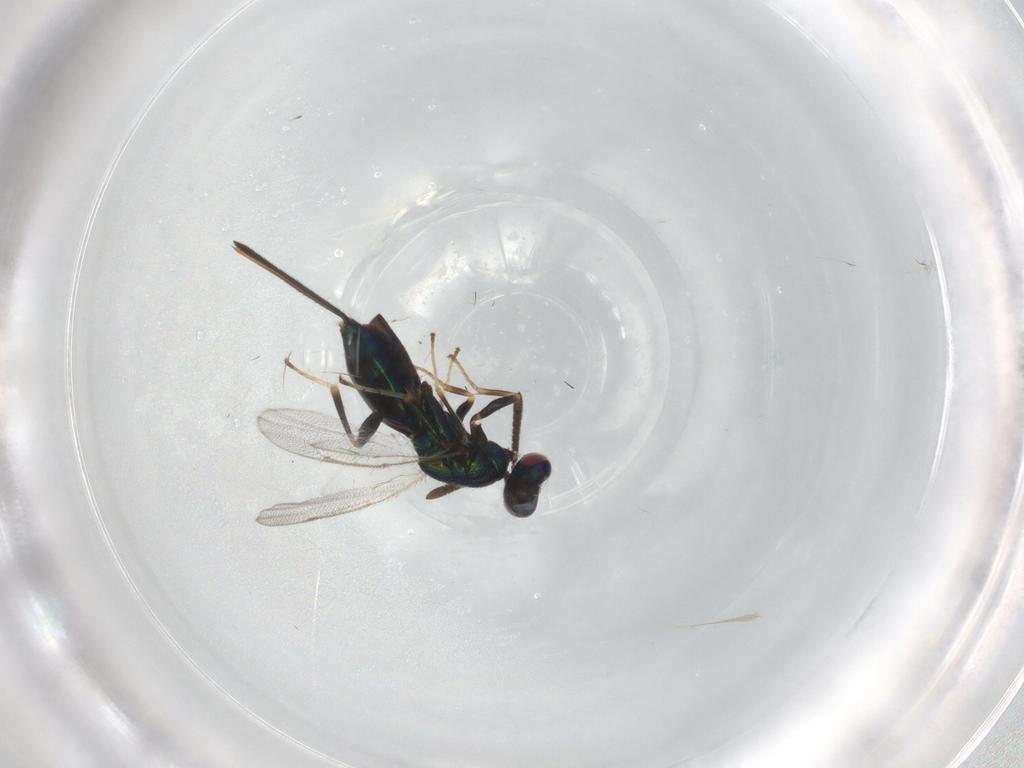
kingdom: Animalia
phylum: Arthropoda
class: Insecta
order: Hymenoptera
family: Torymidae
